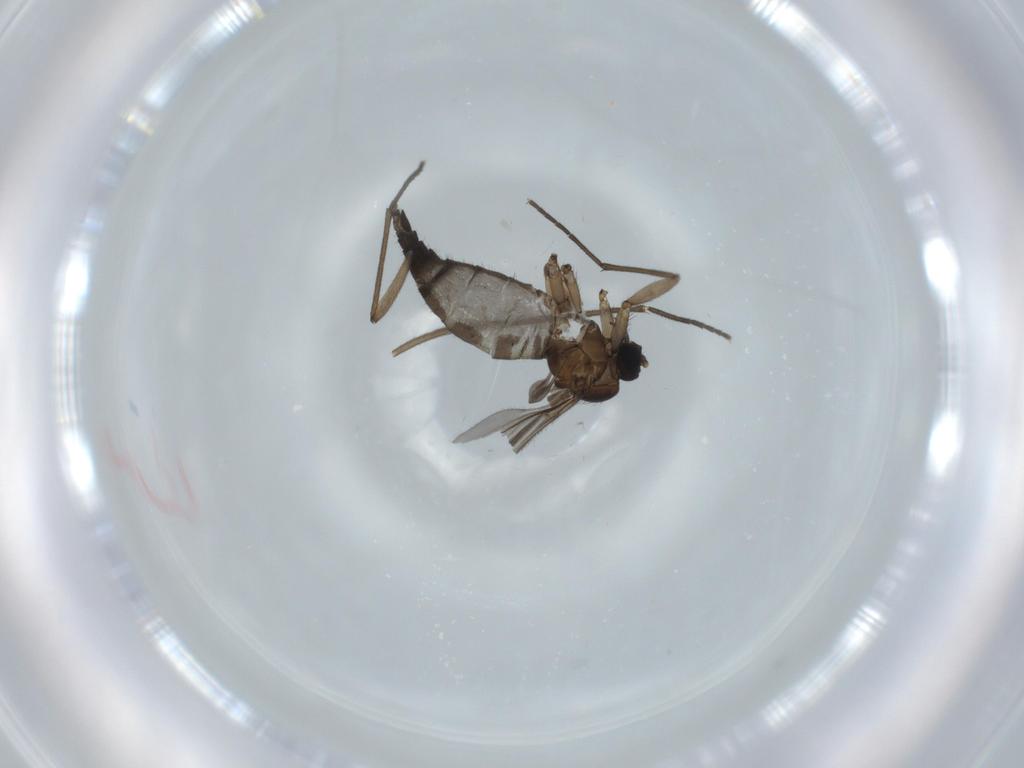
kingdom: Animalia
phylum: Arthropoda
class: Insecta
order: Diptera
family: Sciaridae
